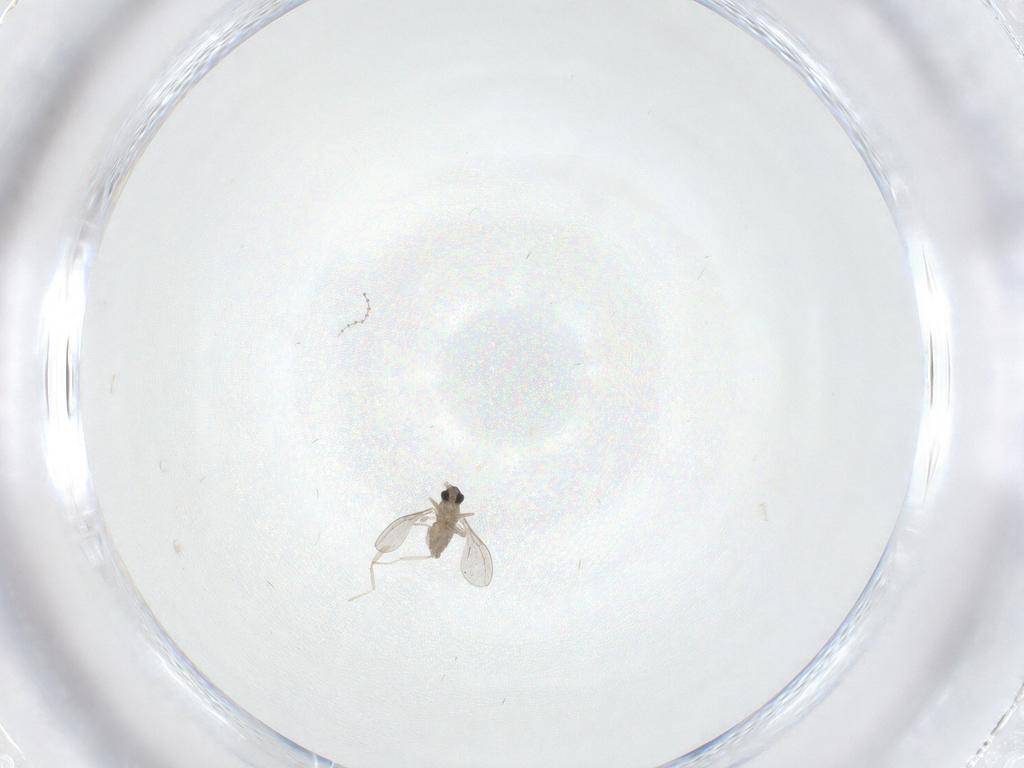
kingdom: Animalia
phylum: Arthropoda
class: Insecta
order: Diptera
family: Cecidomyiidae
